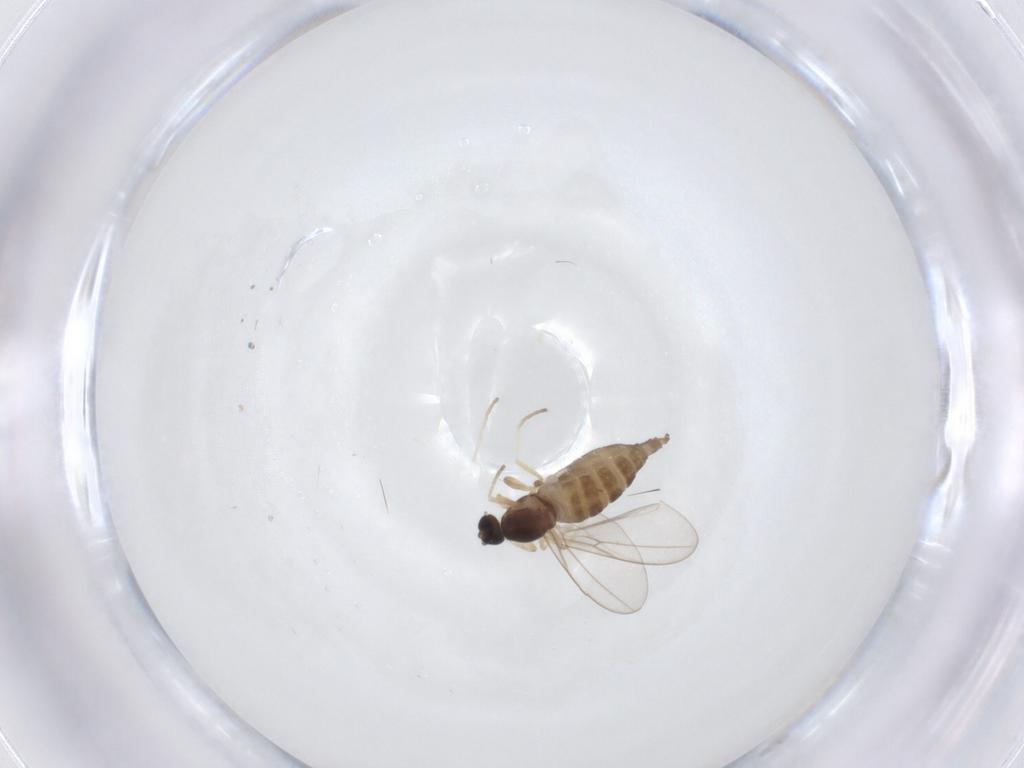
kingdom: Animalia
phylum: Arthropoda
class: Insecta
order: Diptera
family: Cecidomyiidae
